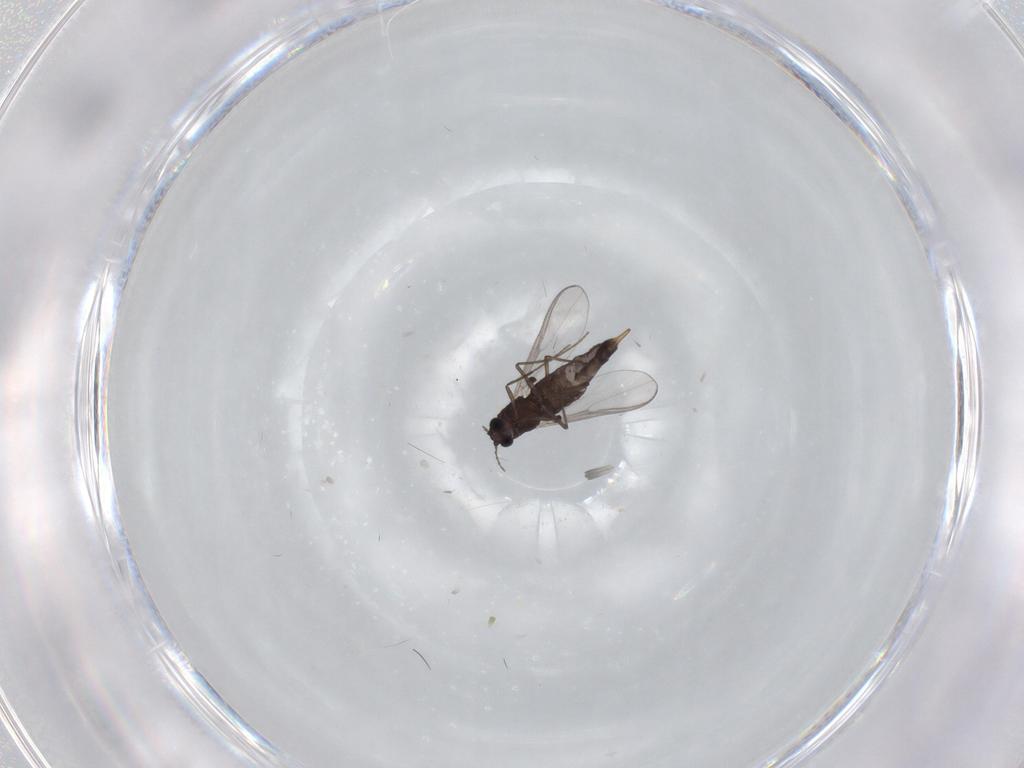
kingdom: Animalia
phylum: Arthropoda
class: Insecta
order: Diptera
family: Chironomidae
